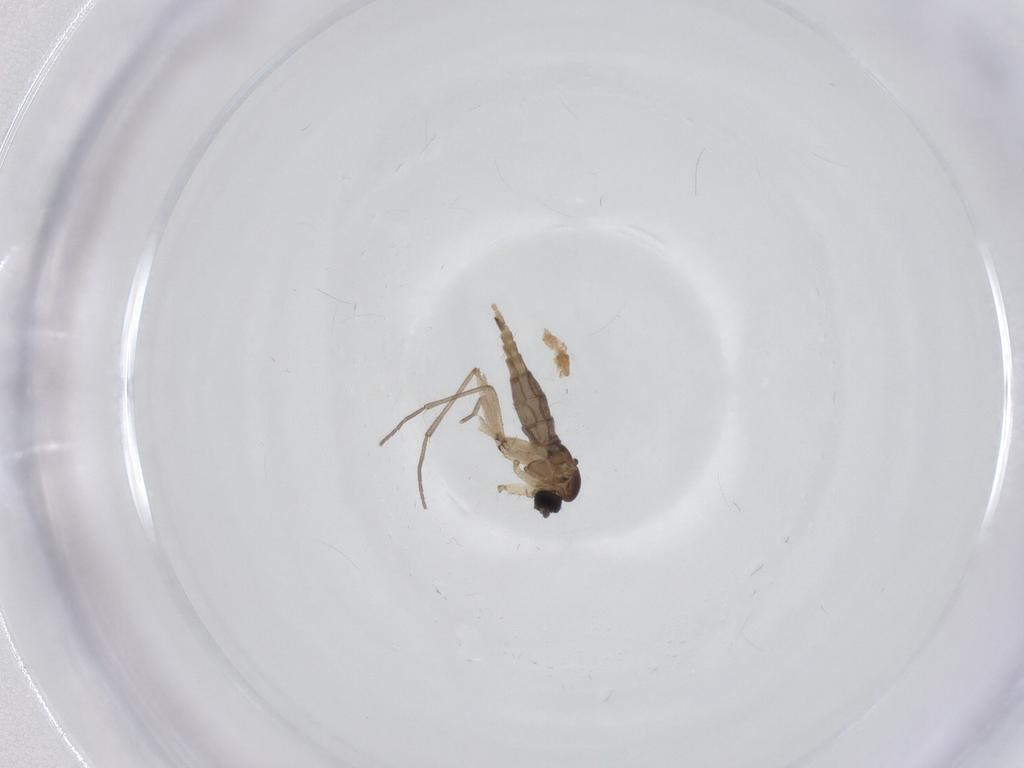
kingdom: Animalia
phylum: Arthropoda
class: Insecta
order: Diptera
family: Sciaridae
